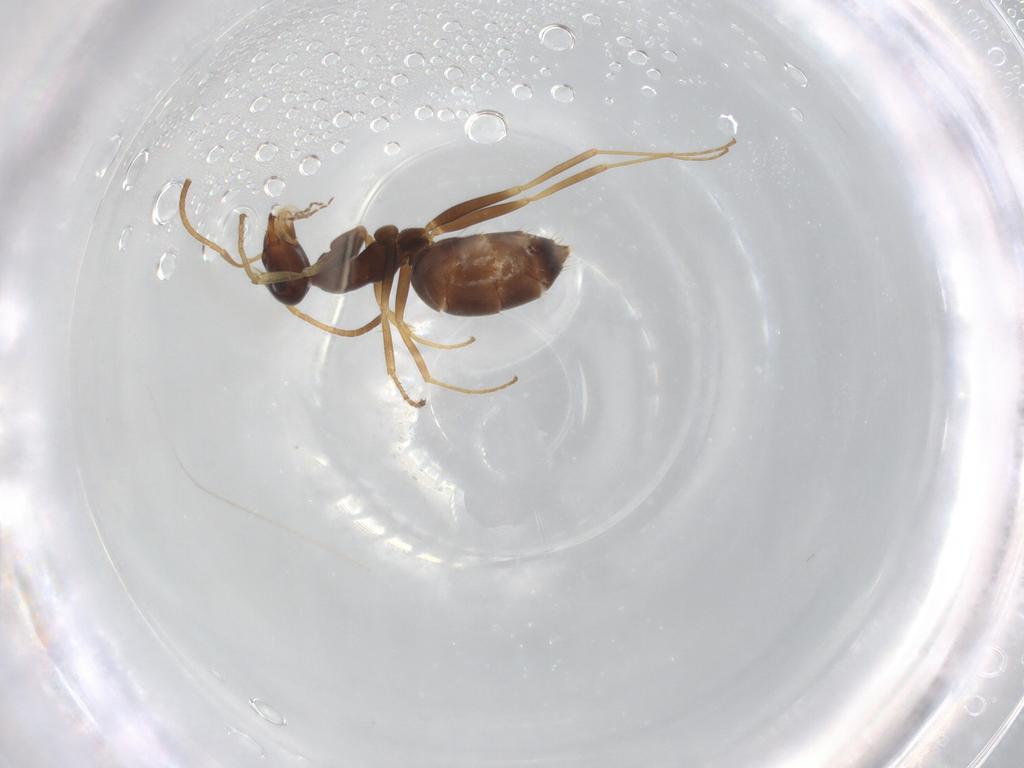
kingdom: Animalia
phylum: Arthropoda
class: Insecta
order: Hymenoptera
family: Formicidae
